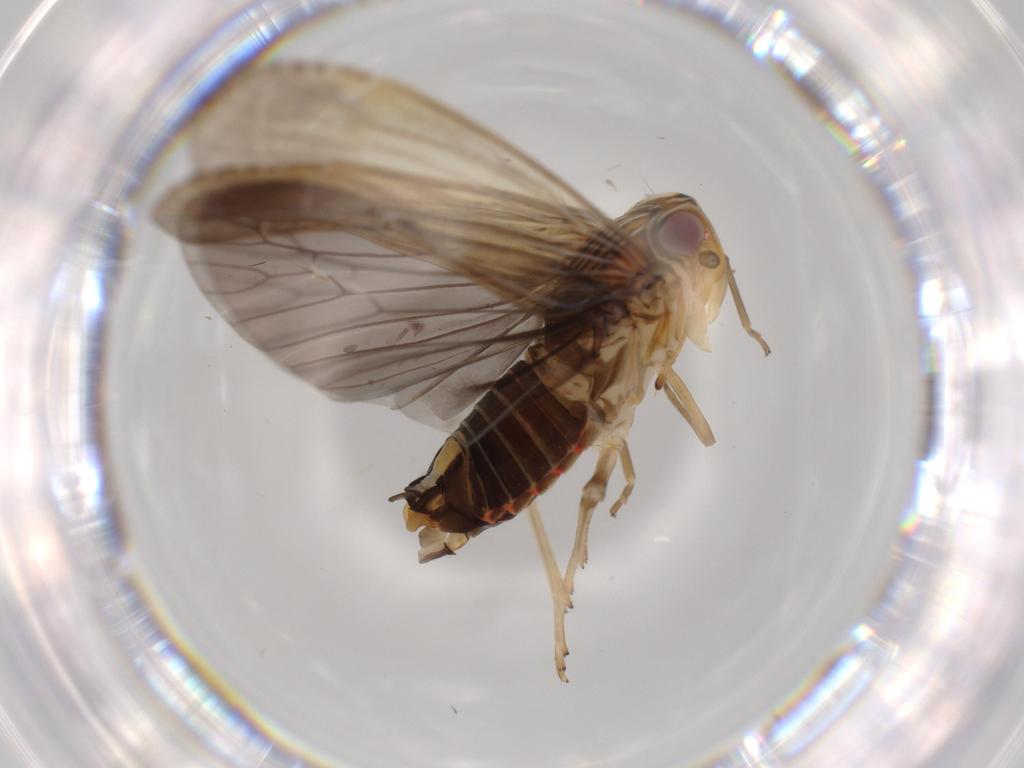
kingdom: Animalia
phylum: Arthropoda
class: Insecta
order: Hemiptera
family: Achilidae
